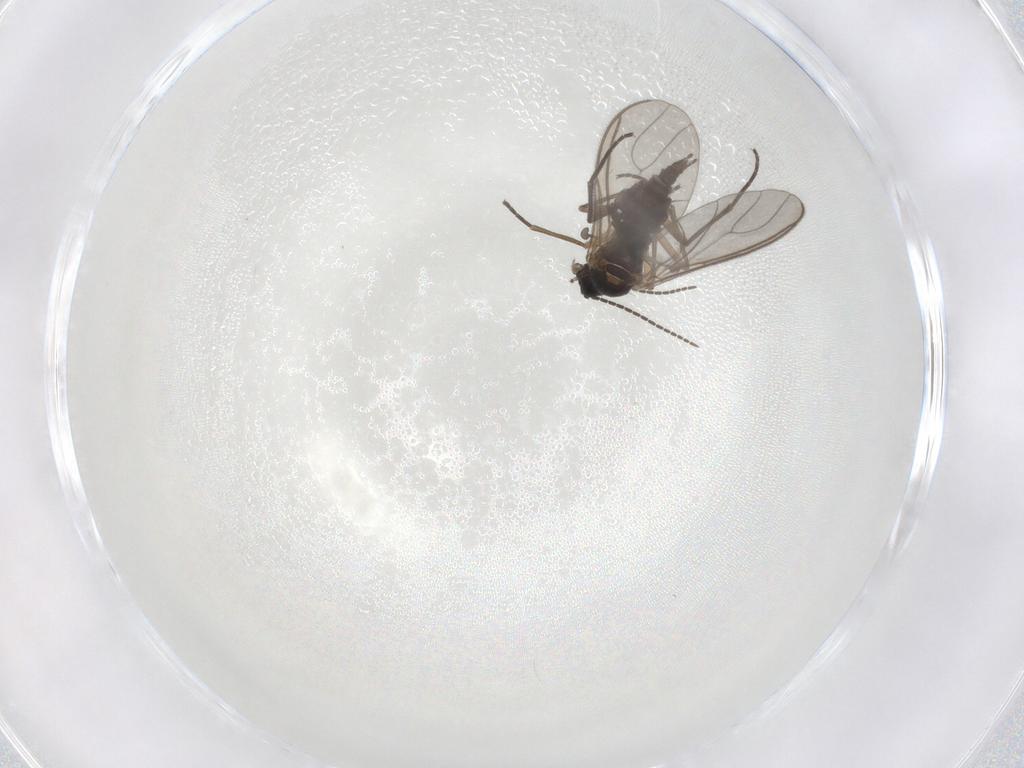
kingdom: Animalia
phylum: Arthropoda
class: Insecta
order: Diptera
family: Sciaridae
